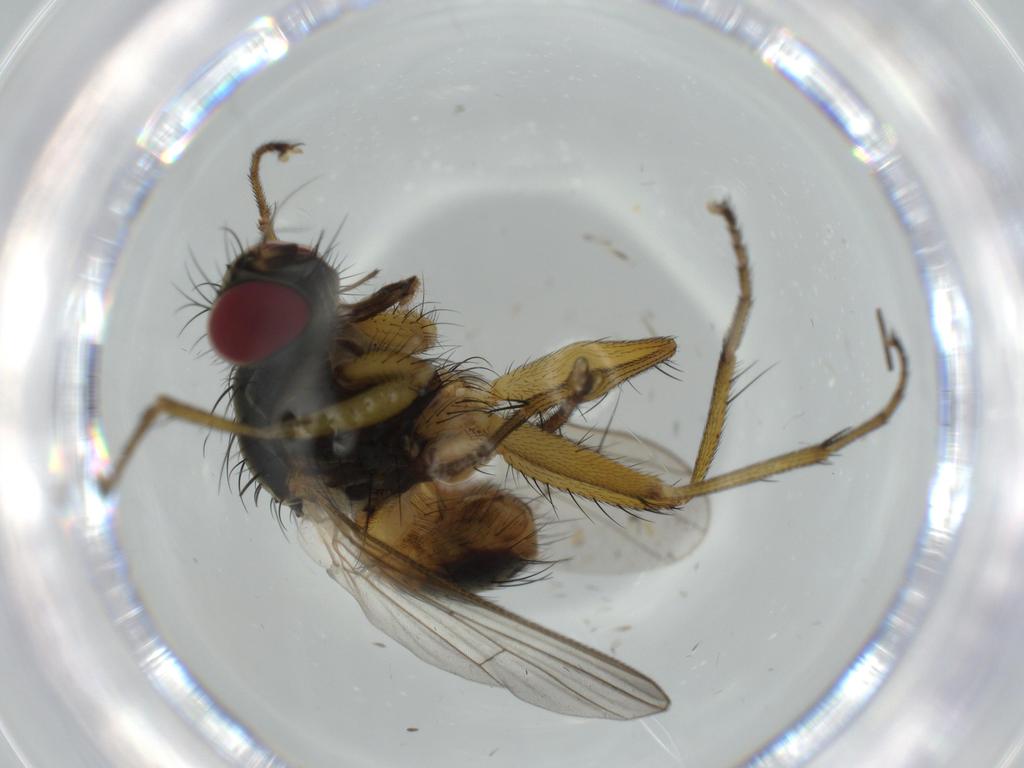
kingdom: Animalia
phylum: Arthropoda
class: Insecta
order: Diptera
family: Muscidae
